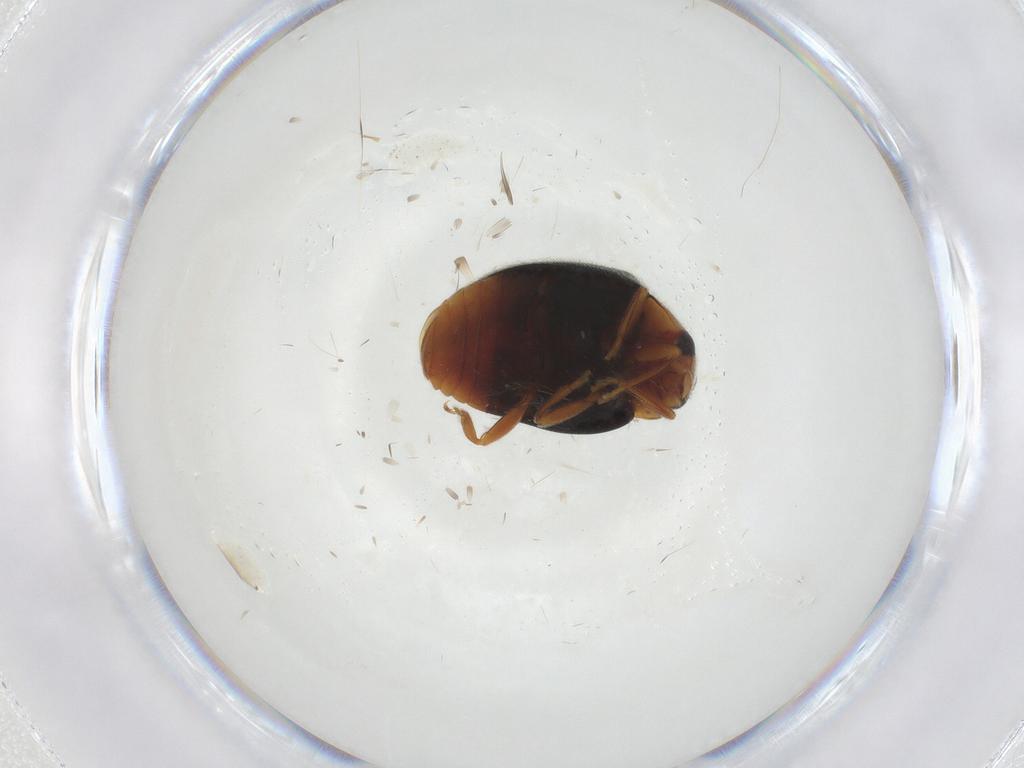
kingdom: Animalia
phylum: Arthropoda
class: Insecta
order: Coleoptera
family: Coccinellidae
